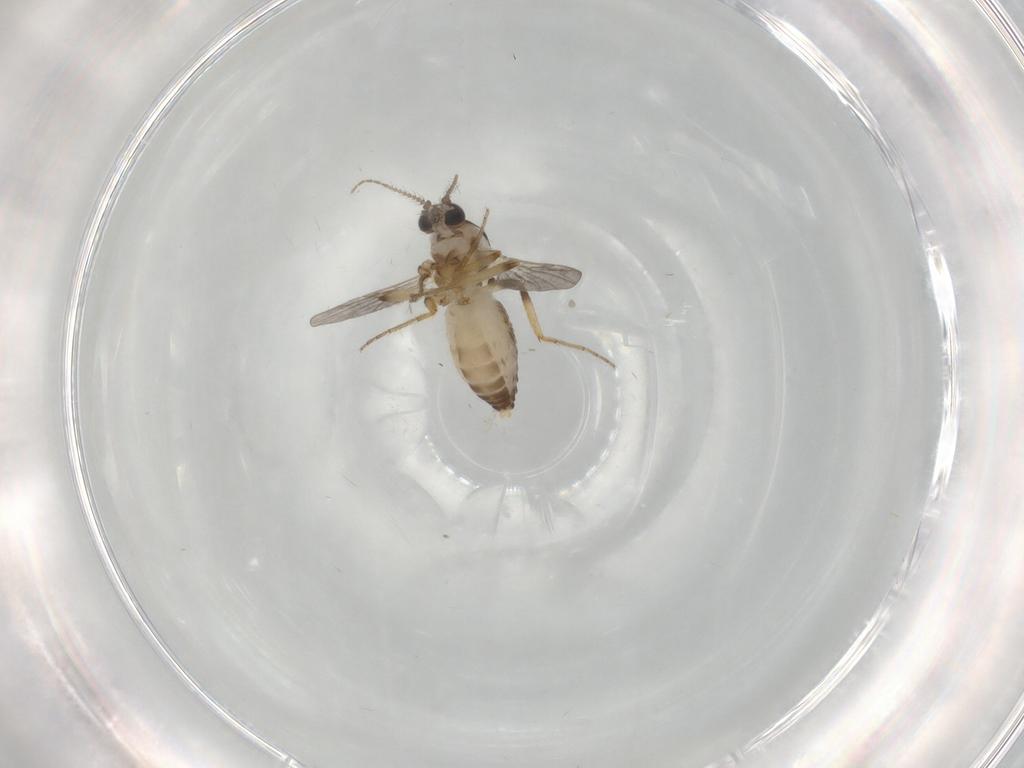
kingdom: Animalia
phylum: Arthropoda
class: Insecta
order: Diptera
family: Ceratopogonidae
